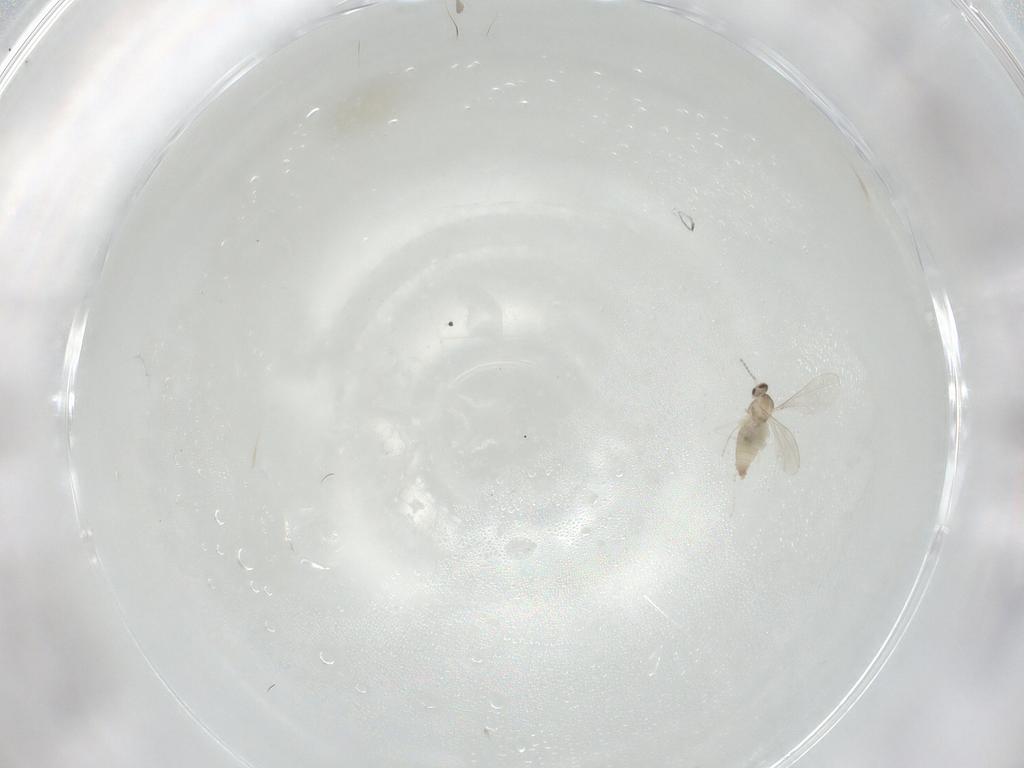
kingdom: Animalia
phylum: Arthropoda
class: Insecta
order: Diptera
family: Cecidomyiidae
